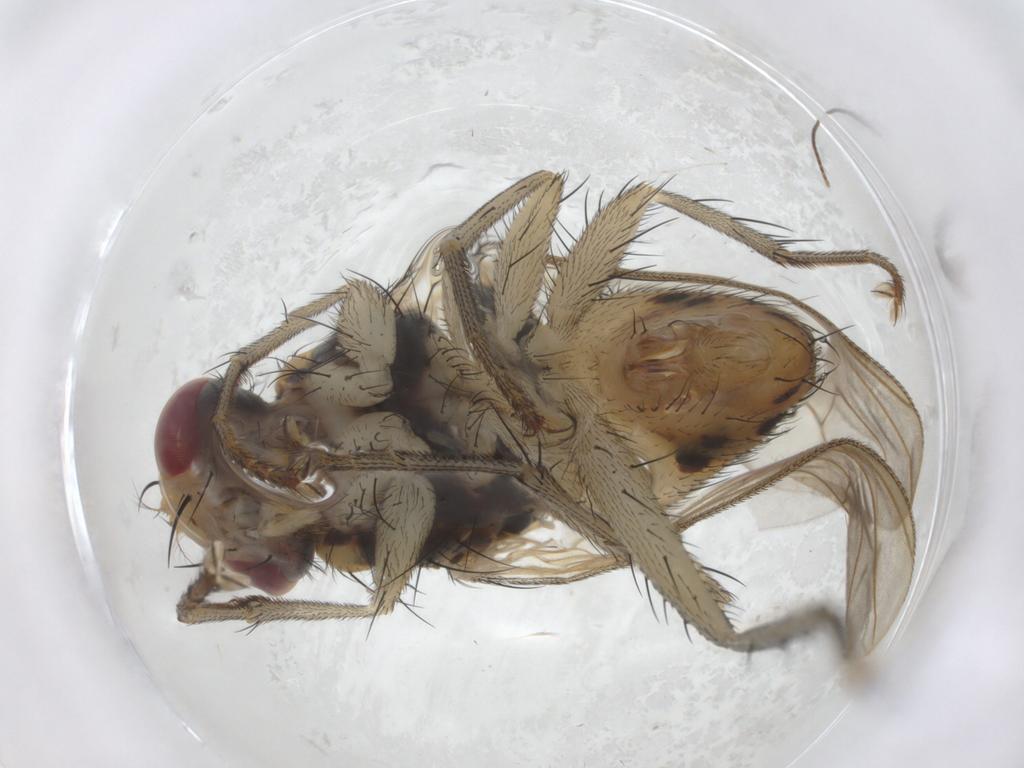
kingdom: Animalia
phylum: Arthropoda
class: Insecta
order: Diptera
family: Muscidae
